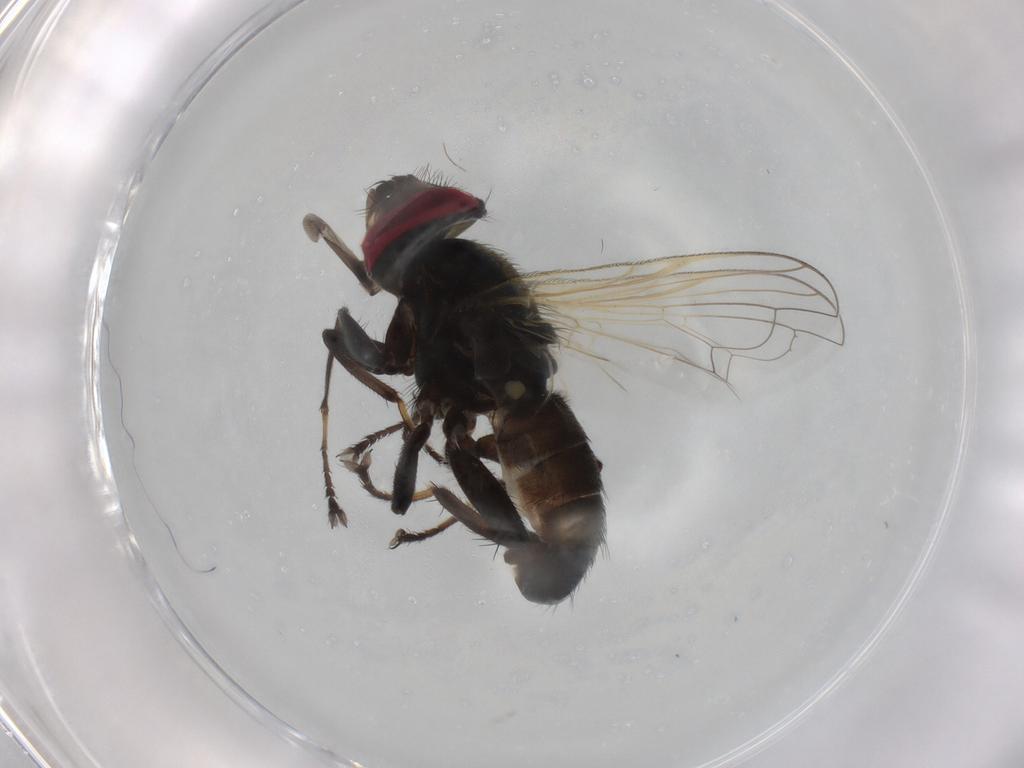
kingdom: Animalia
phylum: Arthropoda
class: Insecta
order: Diptera
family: Tachinidae
